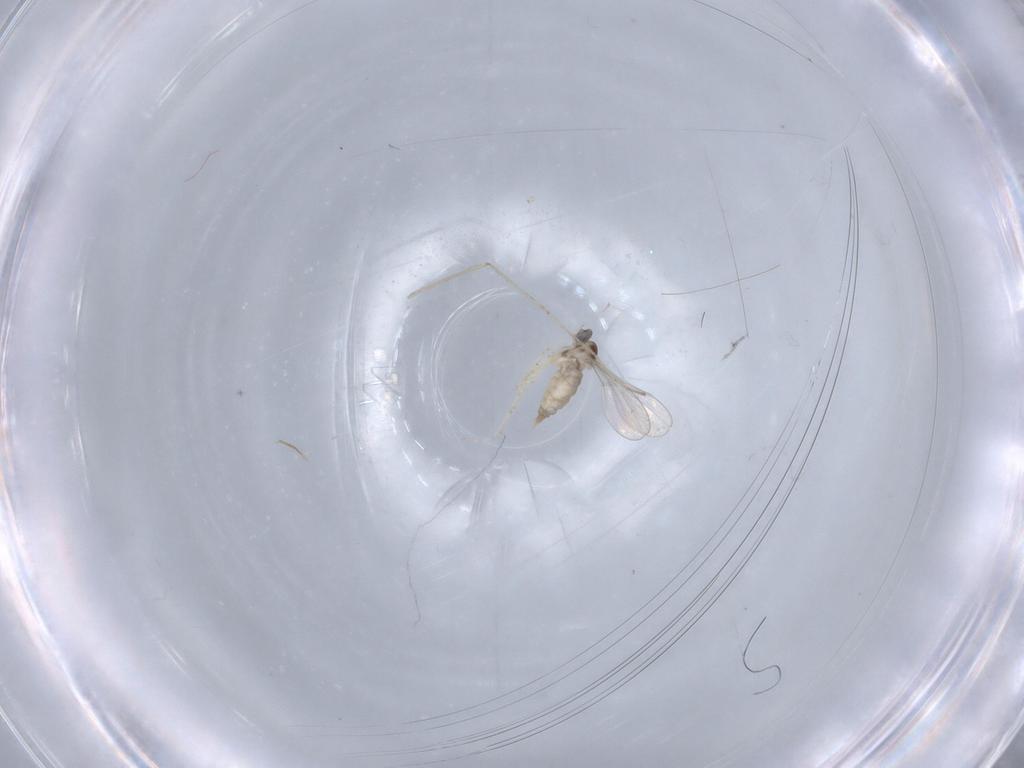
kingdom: Animalia
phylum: Arthropoda
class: Insecta
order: Diptera
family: Cecidomyiidae
